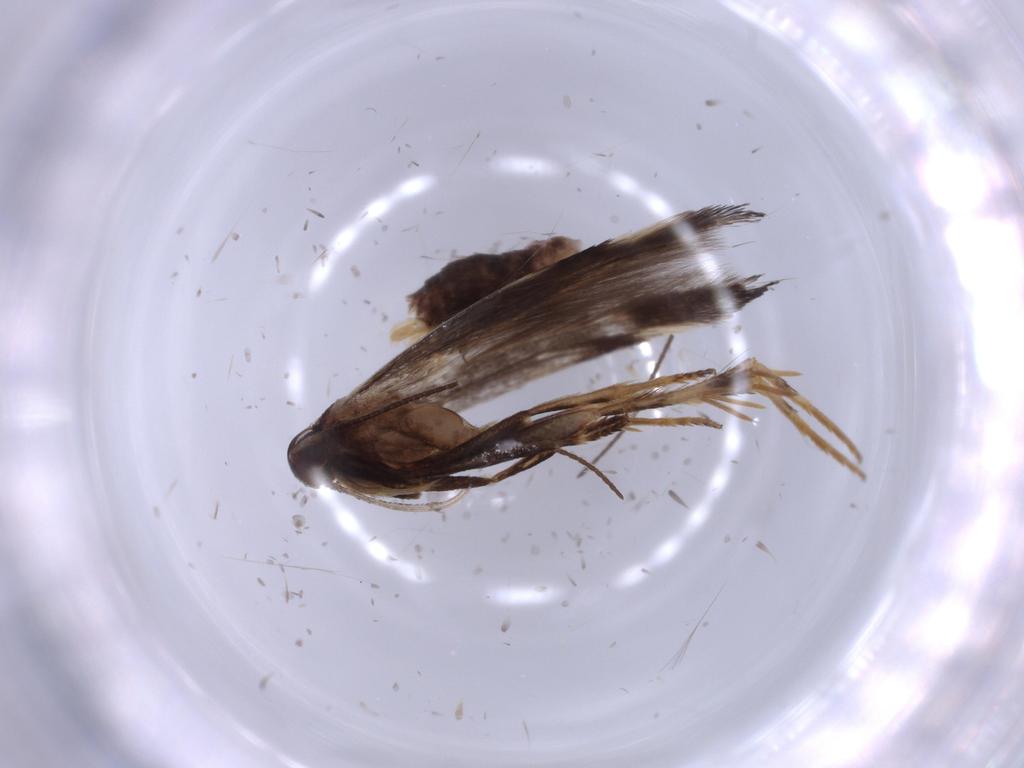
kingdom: Animalia
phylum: Arthropoda
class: Insecta
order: Lepidoptera
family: Cosmopterigidae
